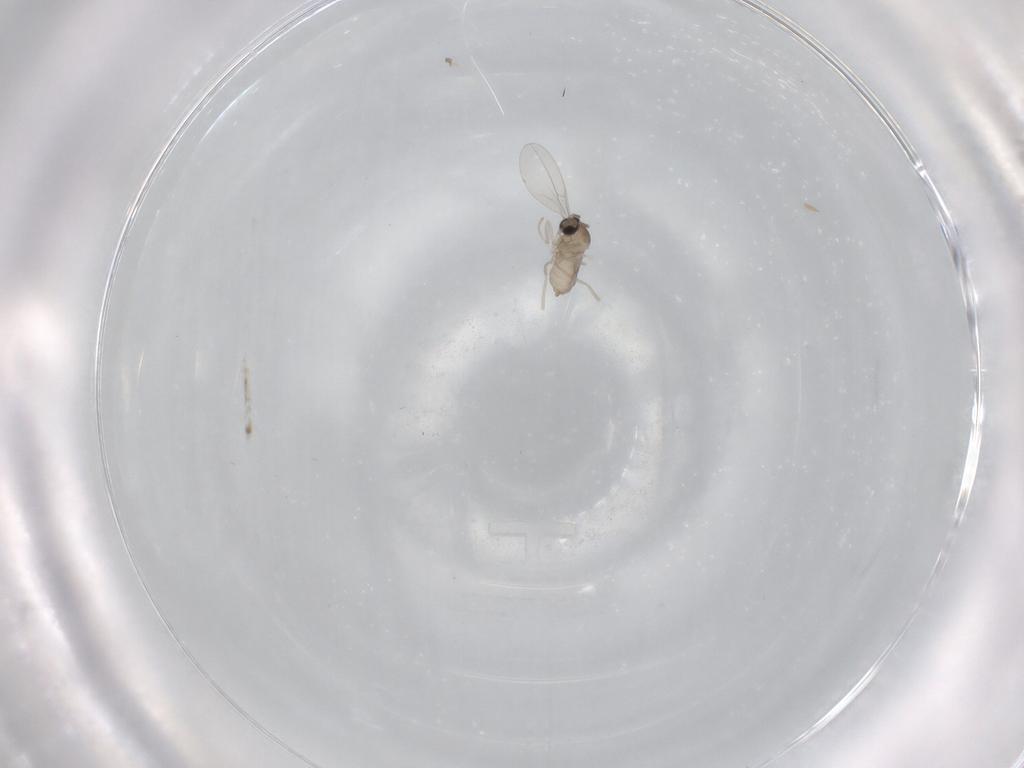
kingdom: Animalia
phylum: Arthropoda
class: Insecta
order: Diptera
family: Cecidomyiidae
